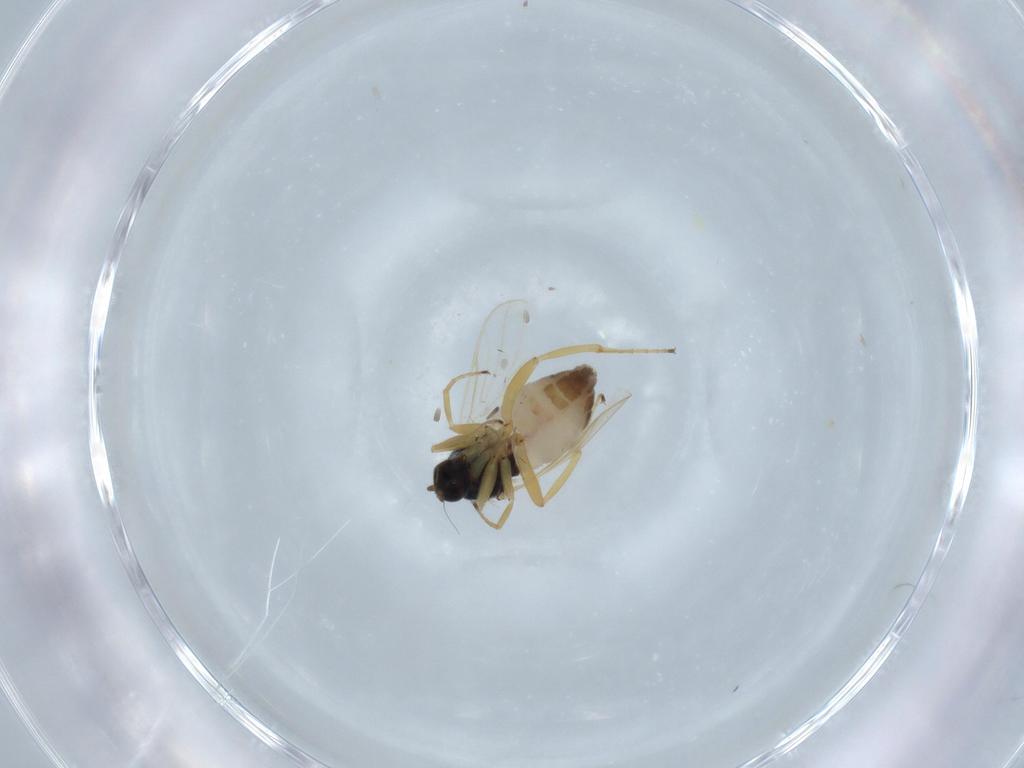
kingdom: Animalia
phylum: Arthropoda
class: Insecta
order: Diptera
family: Hybotidae
